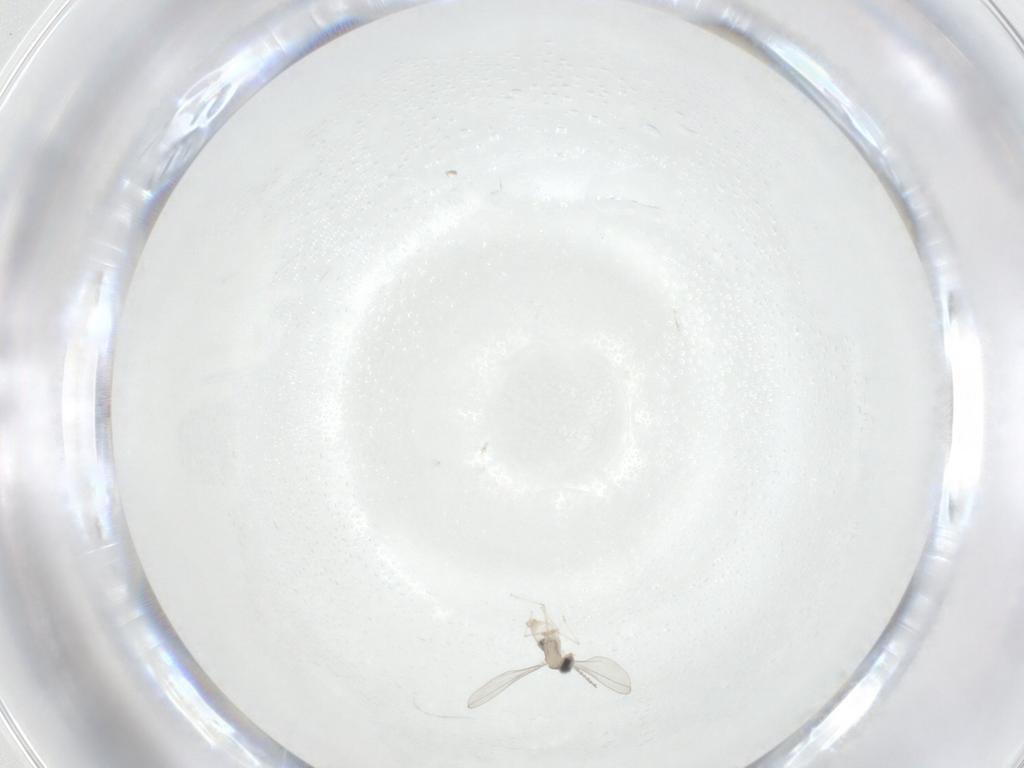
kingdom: Animalia
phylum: Arthropoda
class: Insecta
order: Diptera
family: Cecidomyiidae
